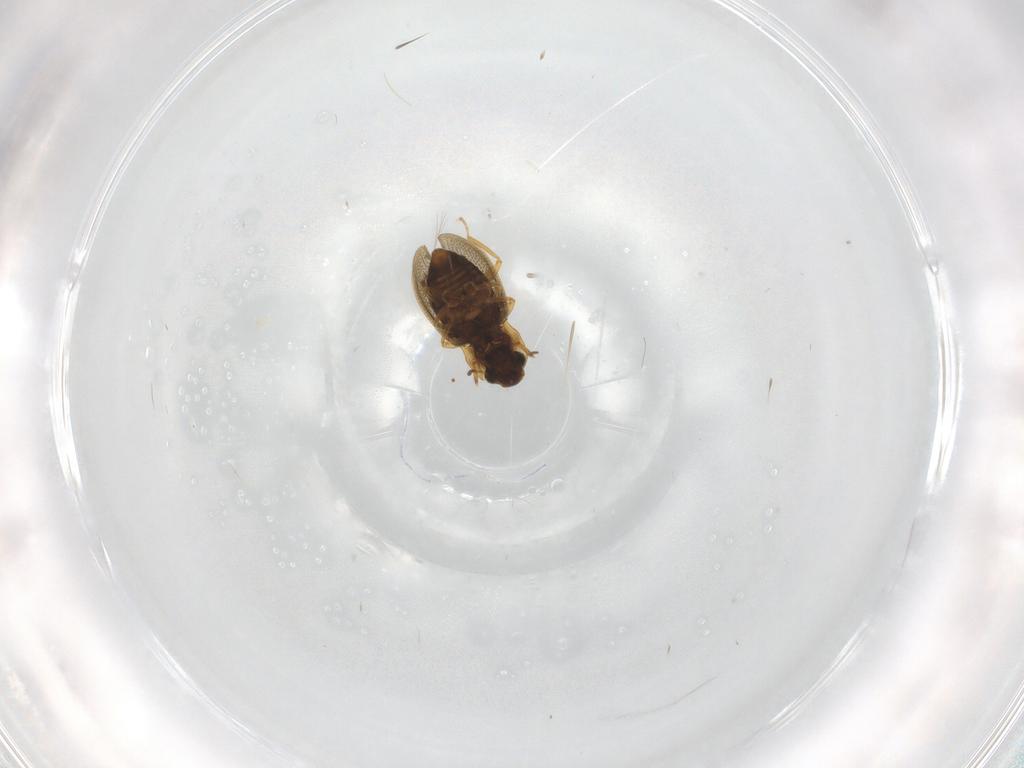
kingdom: Animalia
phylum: Arthropoda
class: Insecta
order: Coleoptera
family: Hydraenidae
